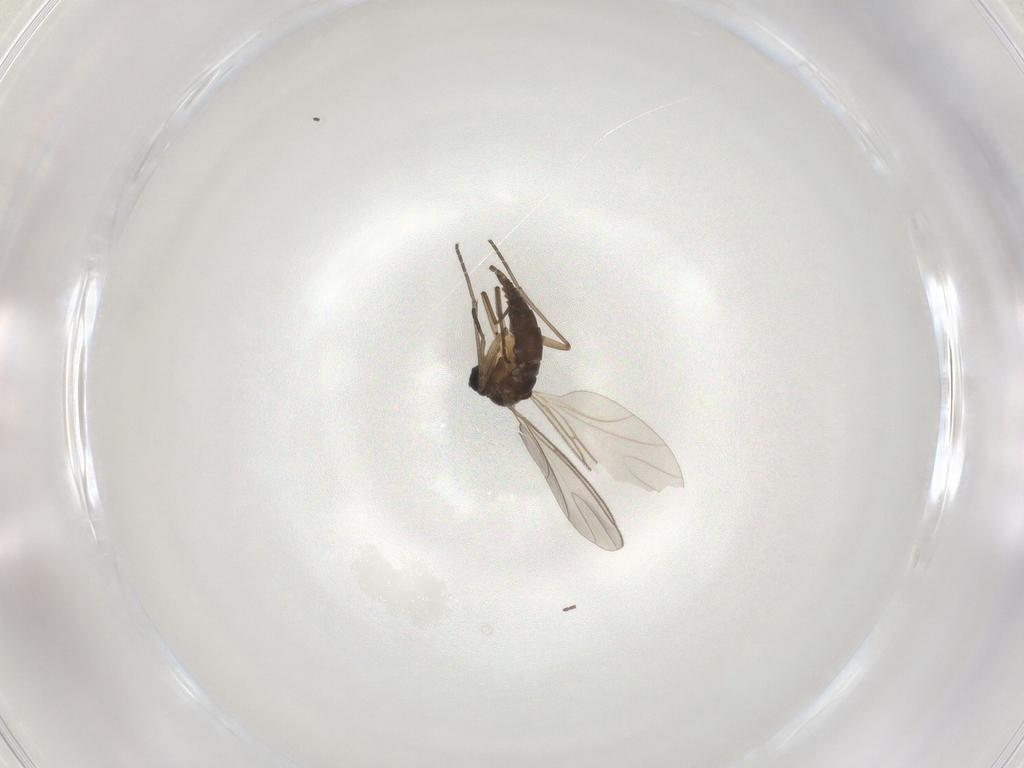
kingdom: Animalia
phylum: Arthropoda
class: Insecta
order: Diptera
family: Sciaridae
